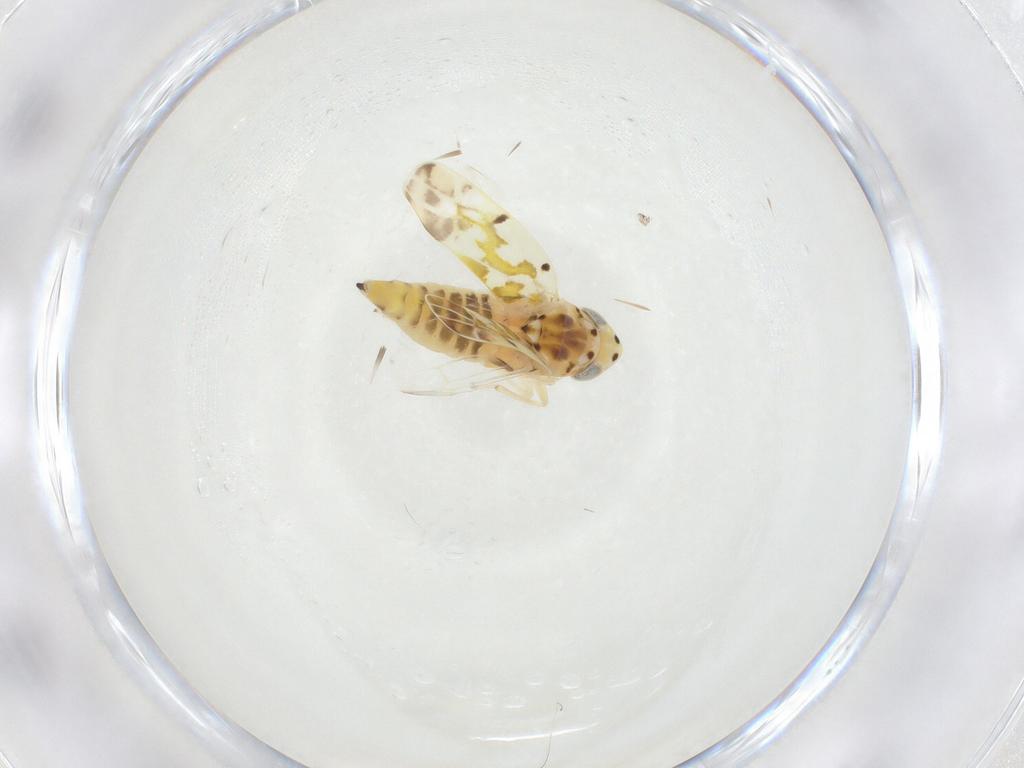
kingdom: Animalia
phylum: Arthropoda
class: Insecta
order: Hemiptera
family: Cicadellidae
